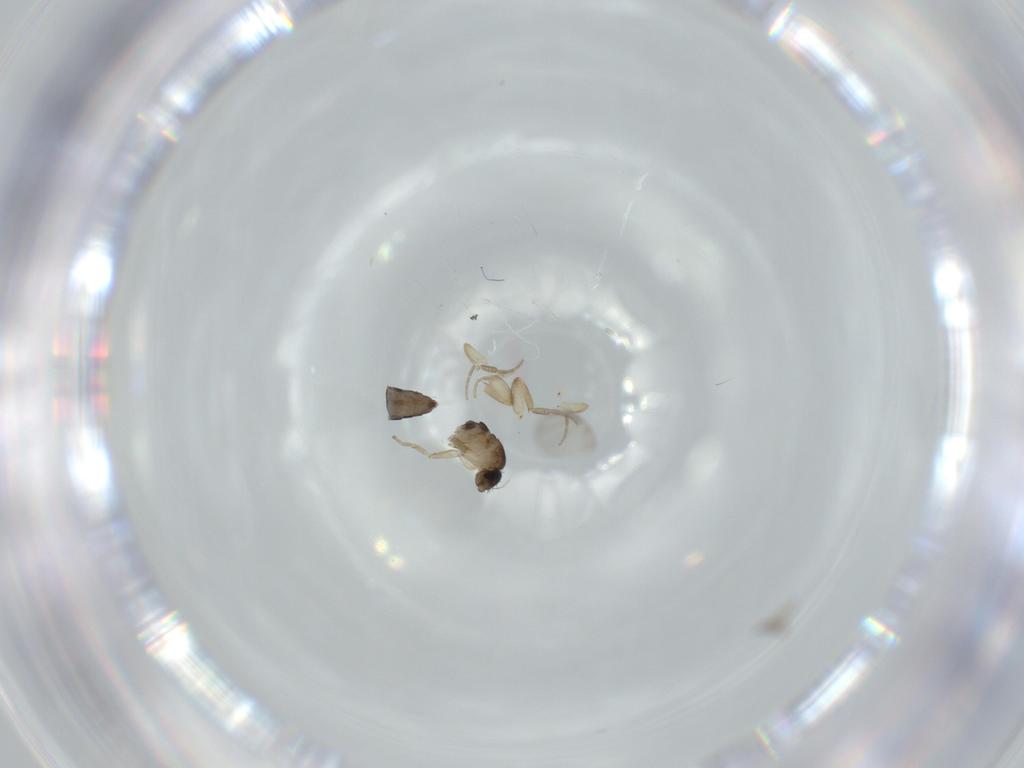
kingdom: Animalia
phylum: Arthropoda
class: Insecta
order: Diptera
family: Phoridae
